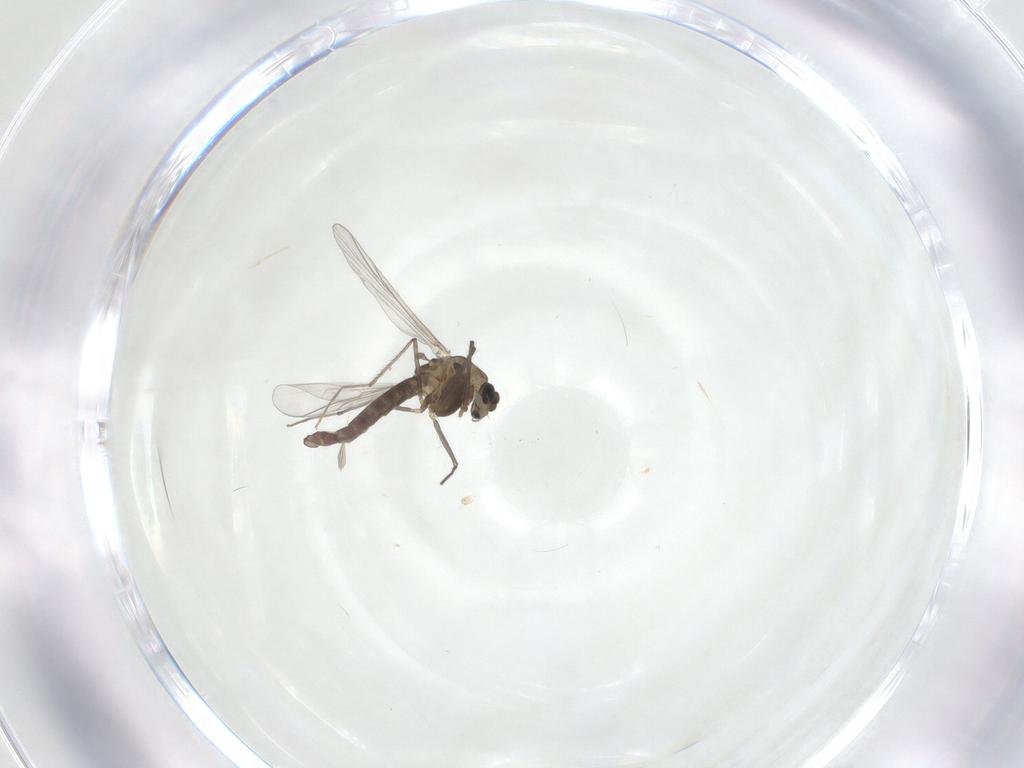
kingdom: Animalia
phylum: Arthropoda
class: Insecta
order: Diptera
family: Chironomidae
